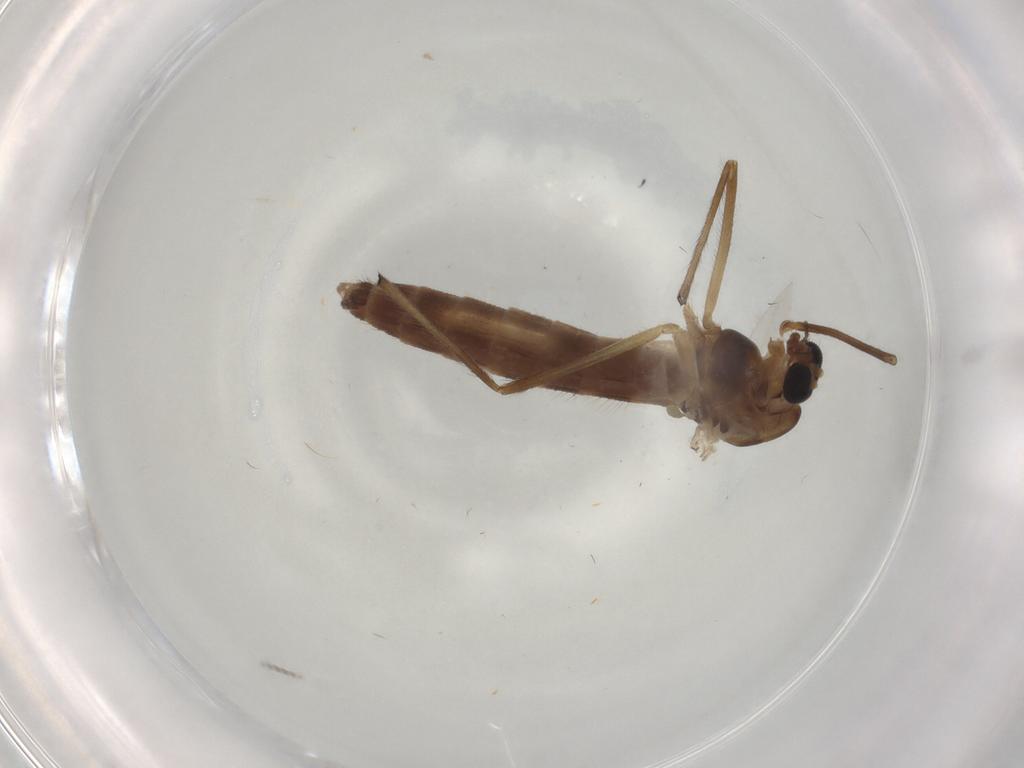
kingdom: Animalia
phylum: Arthropoda
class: Insecta
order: Diptera
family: Chironomidae
